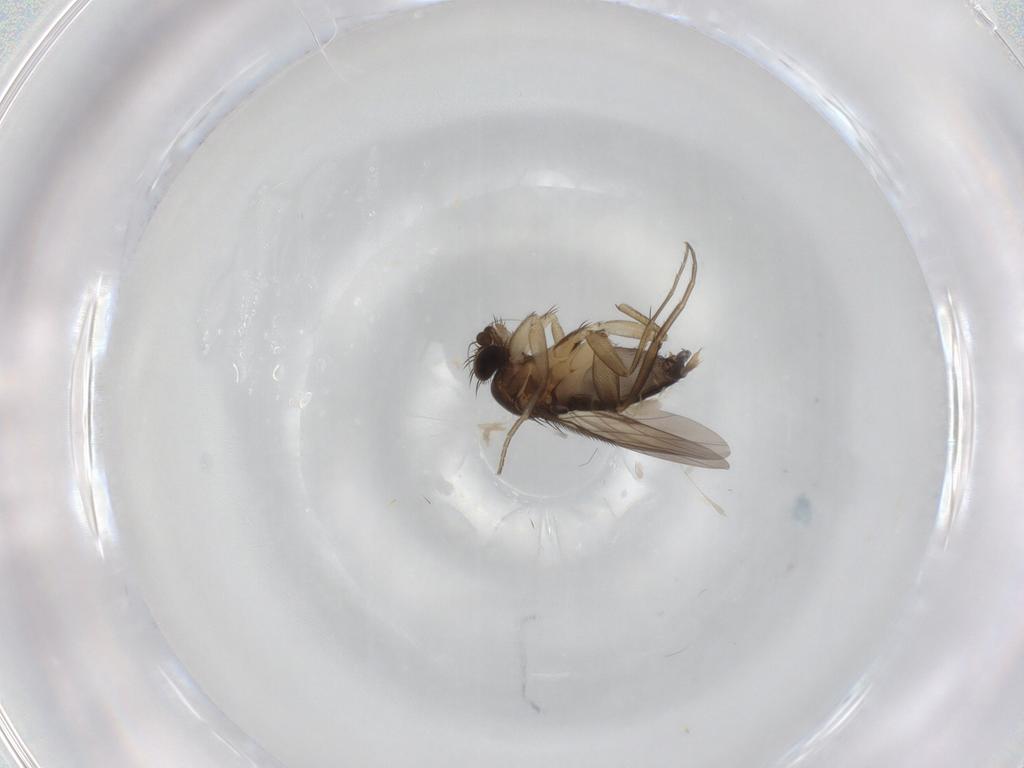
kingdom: Animalia
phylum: Arthropoda
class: Insecta
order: Diptera
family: Phoridae
